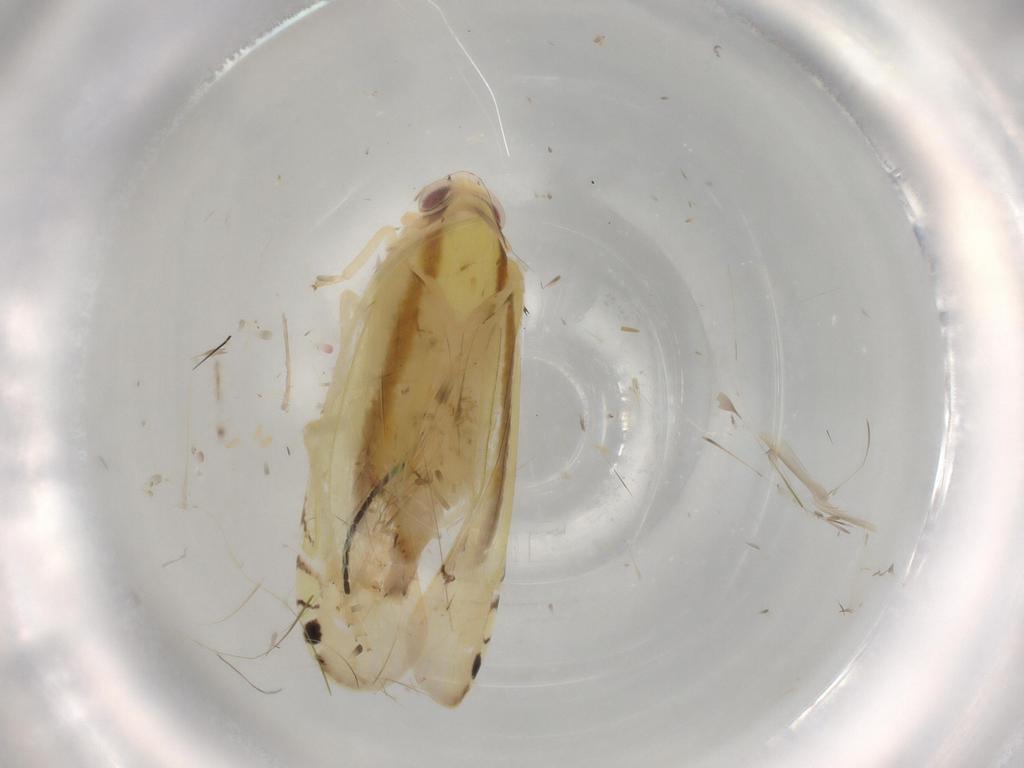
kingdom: Animalia
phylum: Arthropoda
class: Insecta
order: Hemiptera
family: Achilidae
